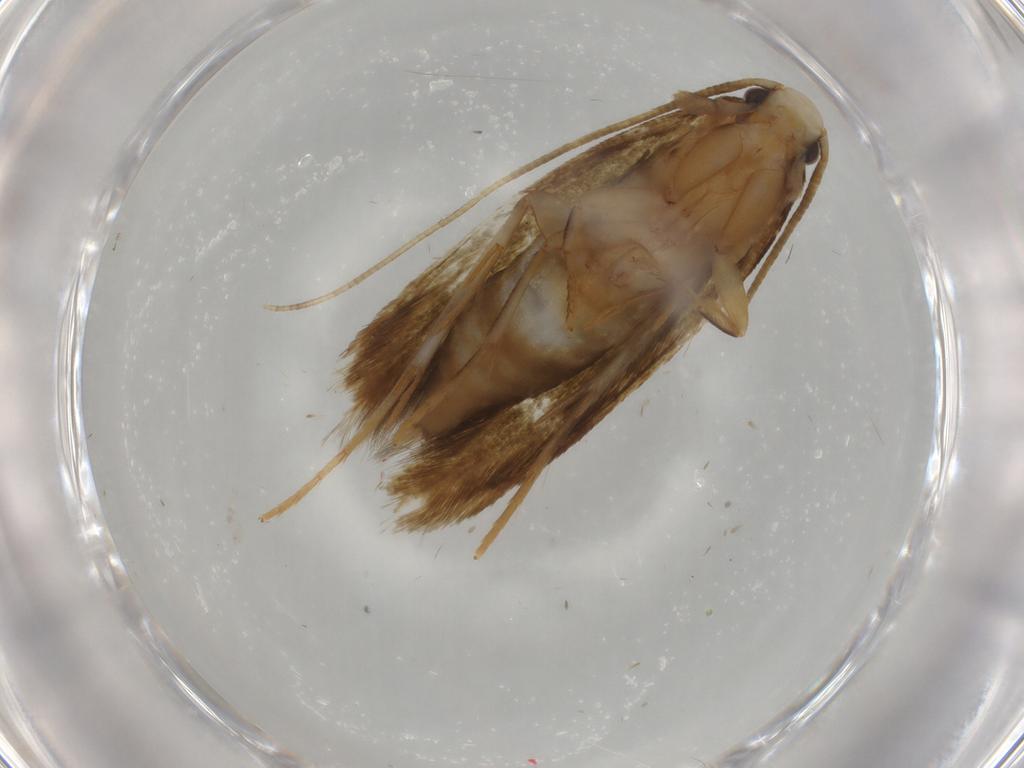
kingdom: Animalia
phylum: Arthropoda
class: Insecta
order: Lepidoptera
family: Tineidae
